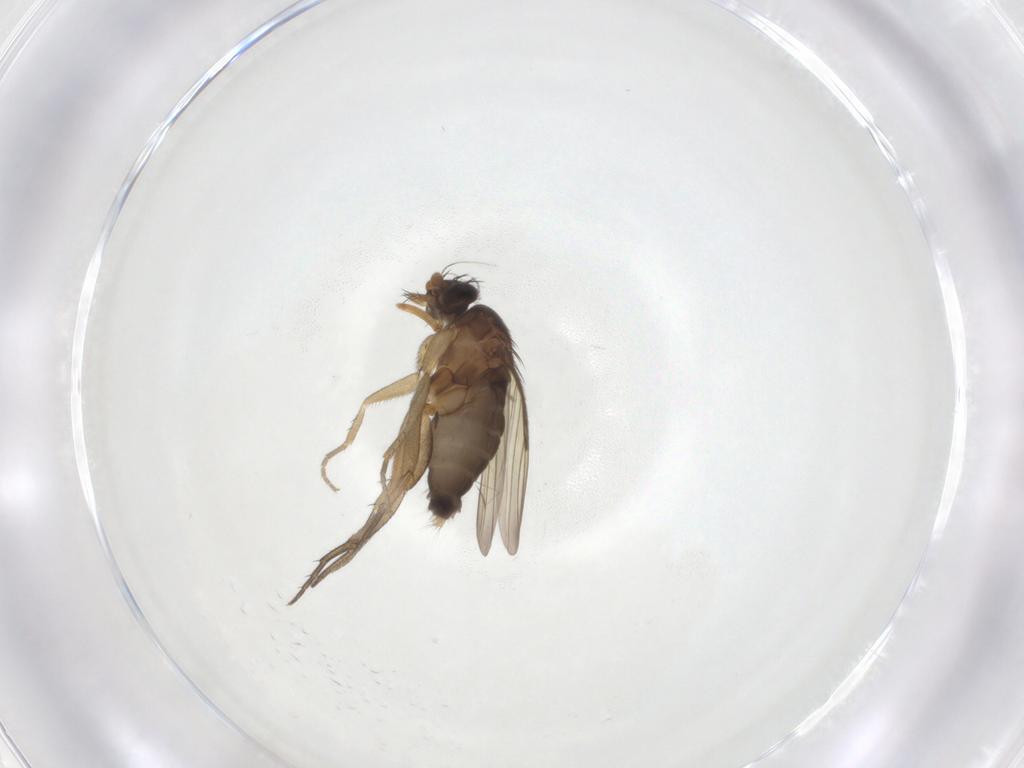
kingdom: Animalia
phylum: Arthropoda
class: Insecta
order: Diptera
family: Phoridae
